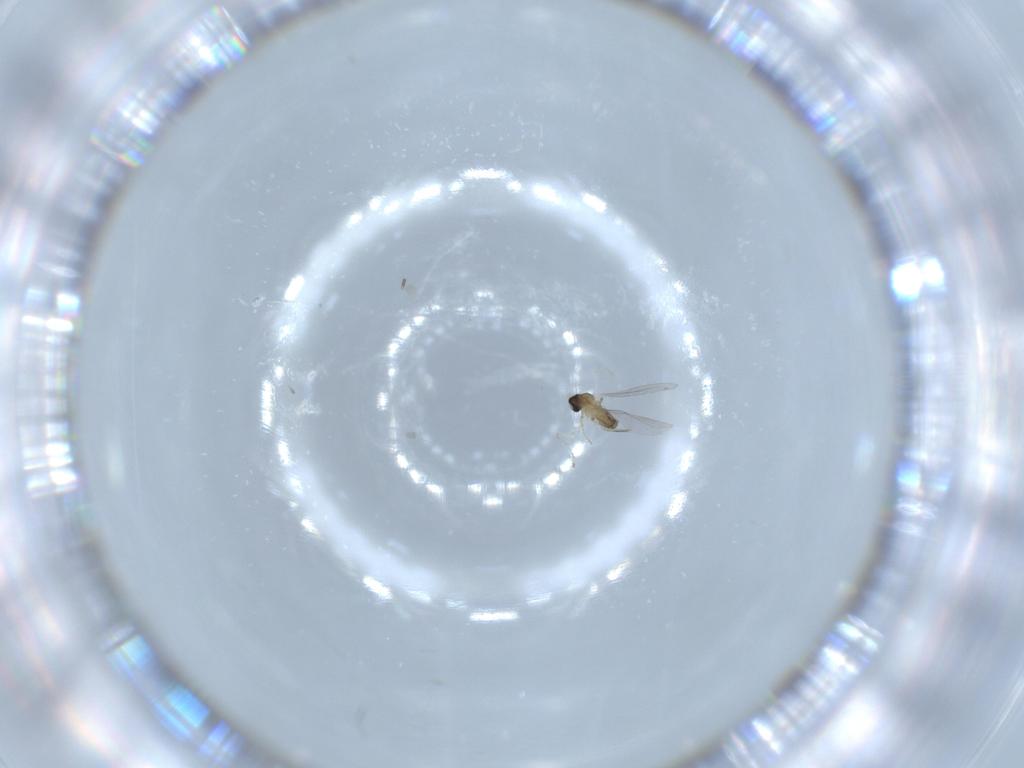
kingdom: Animalia
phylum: Arthropoda
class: Insecta
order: Diptera
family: Cecidomyiidae
